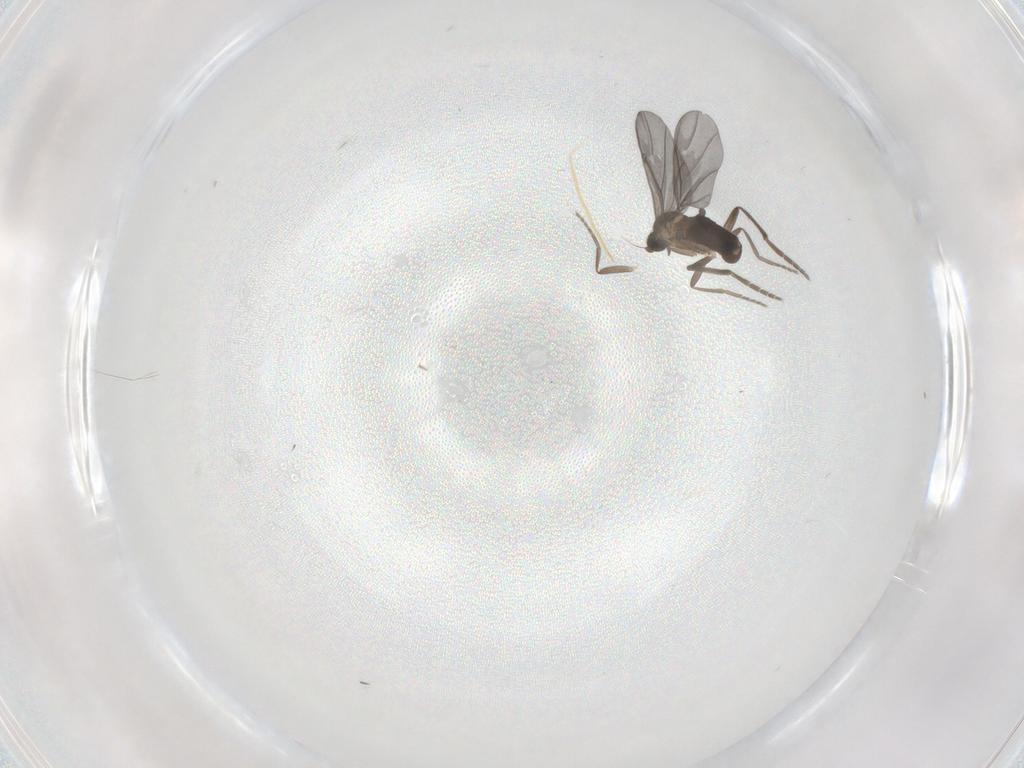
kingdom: Animalia
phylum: Arthropoda
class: Insecta
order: Diptera
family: Phoridae
